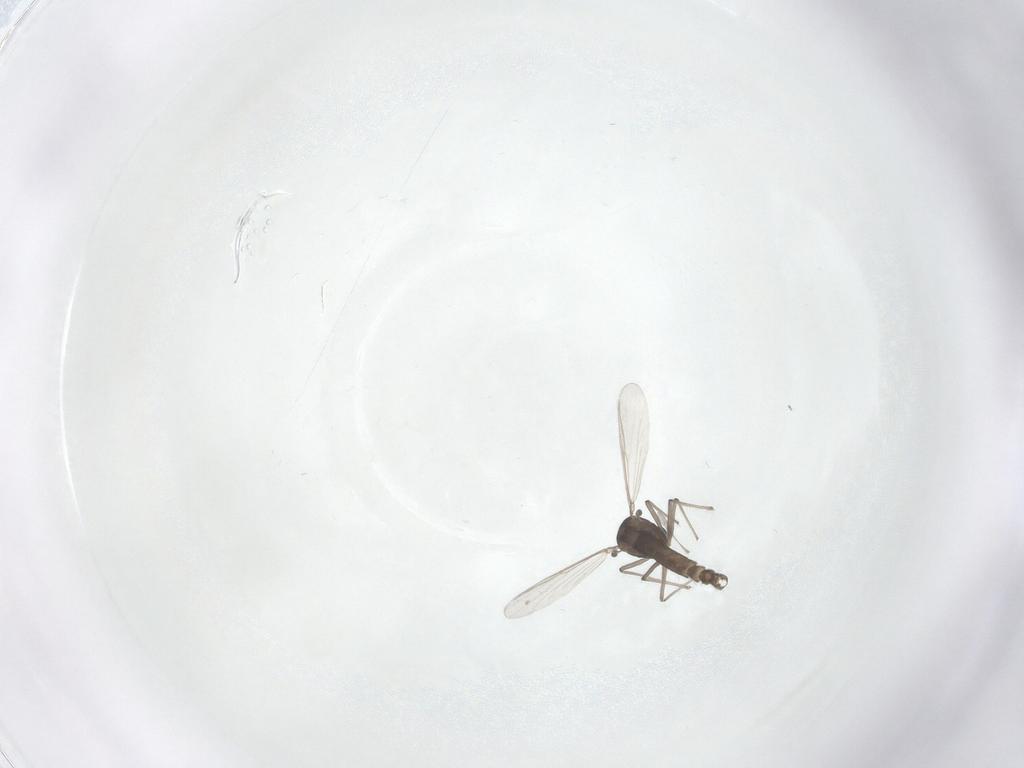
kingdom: Animalia
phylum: Arthropoda
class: Insecta
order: Diptera
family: Chironomidae
